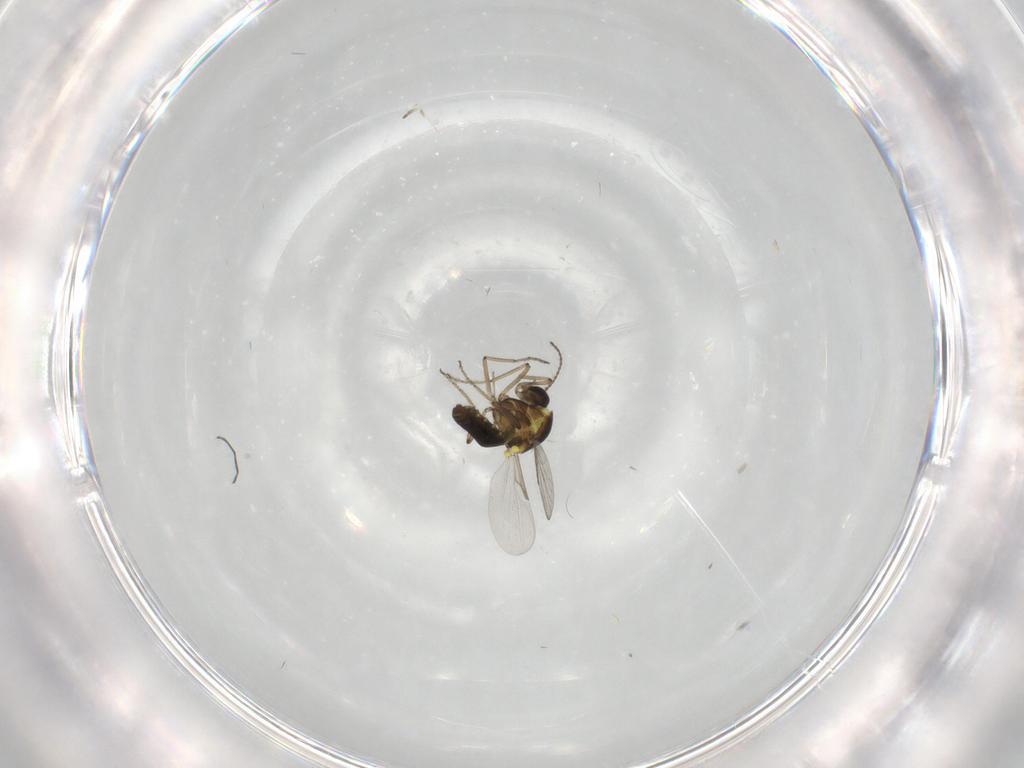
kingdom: Animalia
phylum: Arthropoda
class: Insecta
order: Diptera
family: Ceratopogonidae
